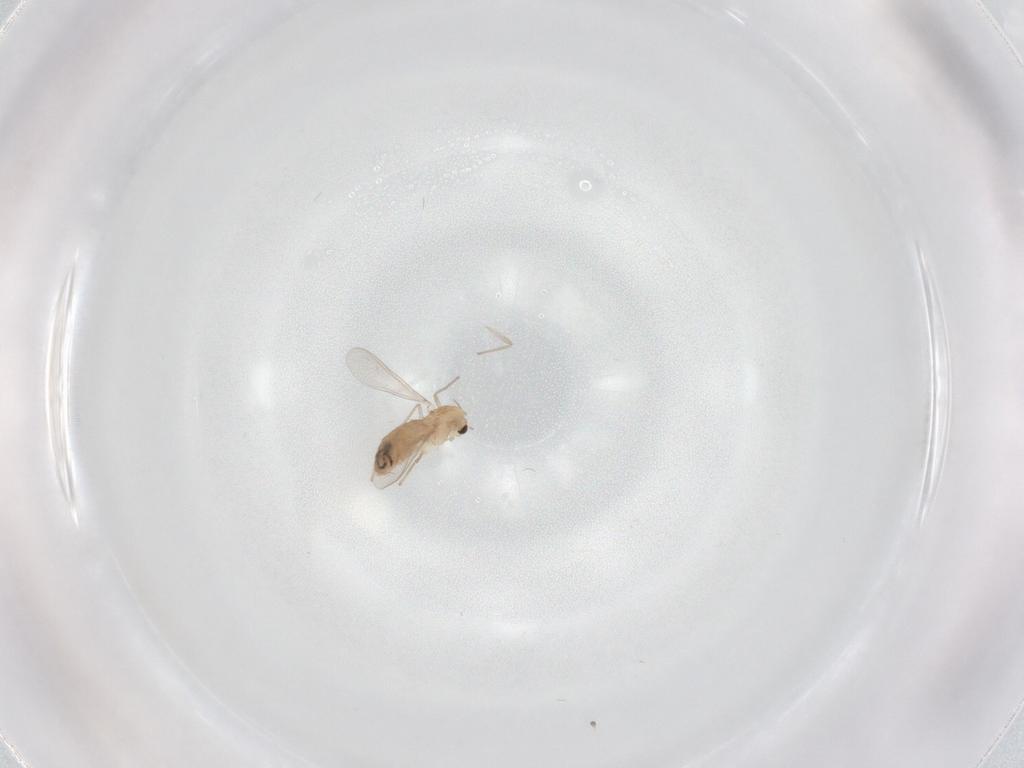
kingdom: Animalia
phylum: Arthropoda
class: Insecta
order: Diptera
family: Chironomidae
